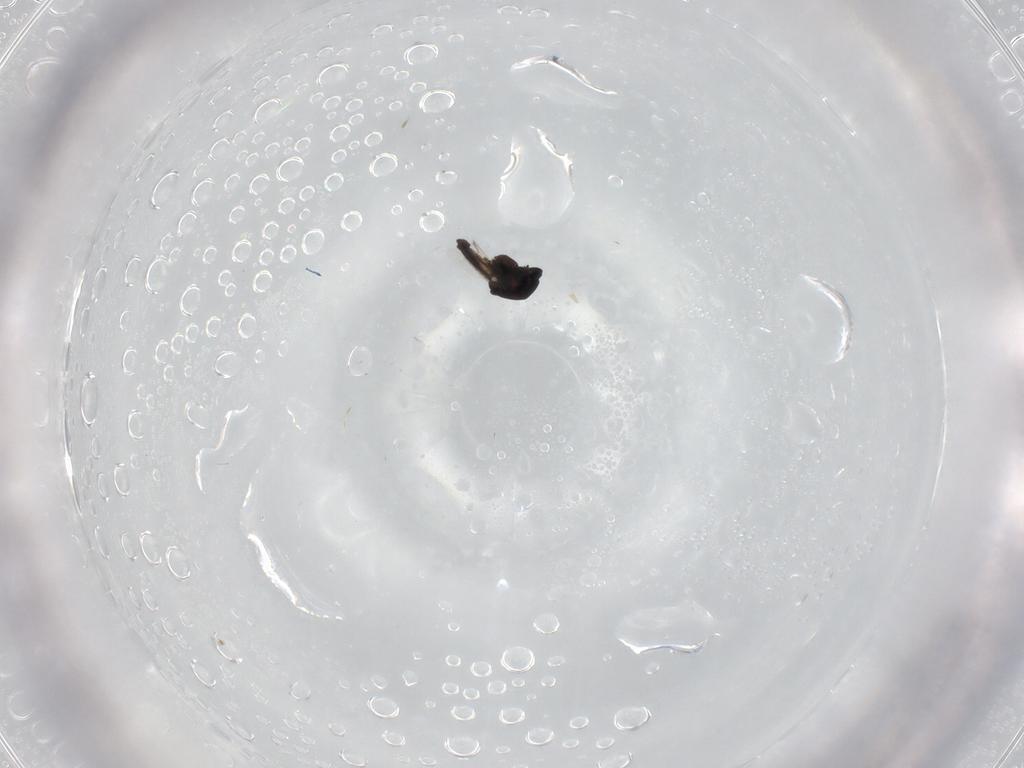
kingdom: Animalia
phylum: Arthropoda
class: Insecta
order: Diptera
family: Ceratopogonidae
